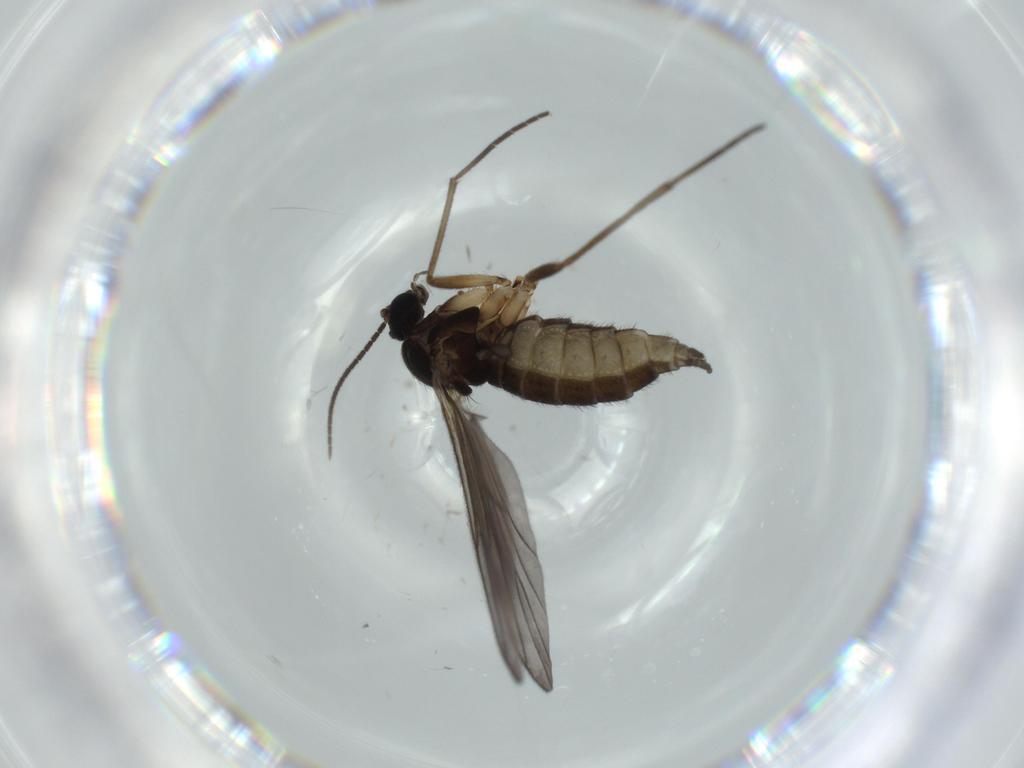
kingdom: Animalia
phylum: Arthropoda
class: Insecta
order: Diptera
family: Sciaridae
